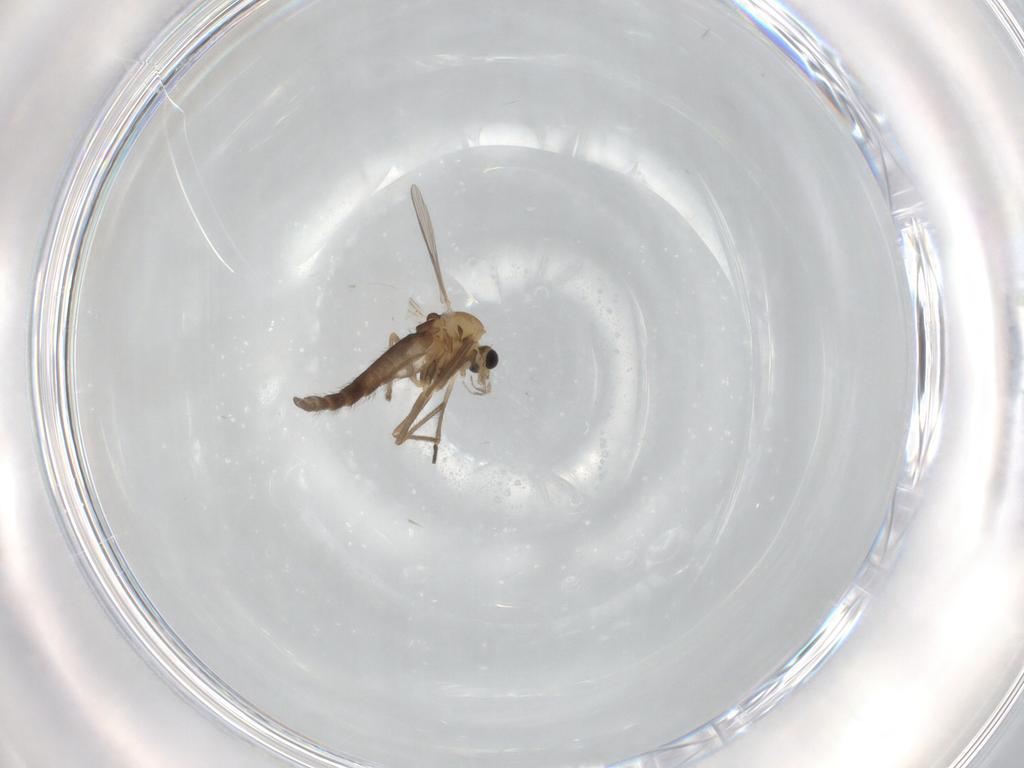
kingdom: Animalia
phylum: Arthropoda
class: Insecta
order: Diptera
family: Chironomidae
